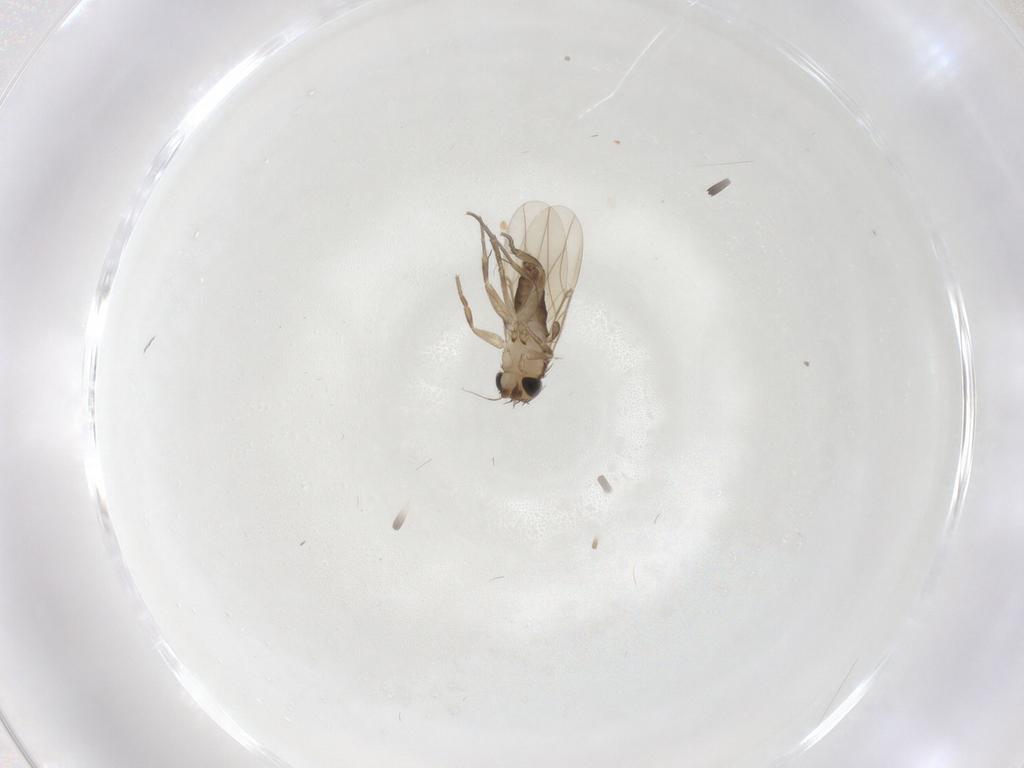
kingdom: Animalia
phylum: Arthropoda
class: Insecta
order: Diptera
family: Phoridae
